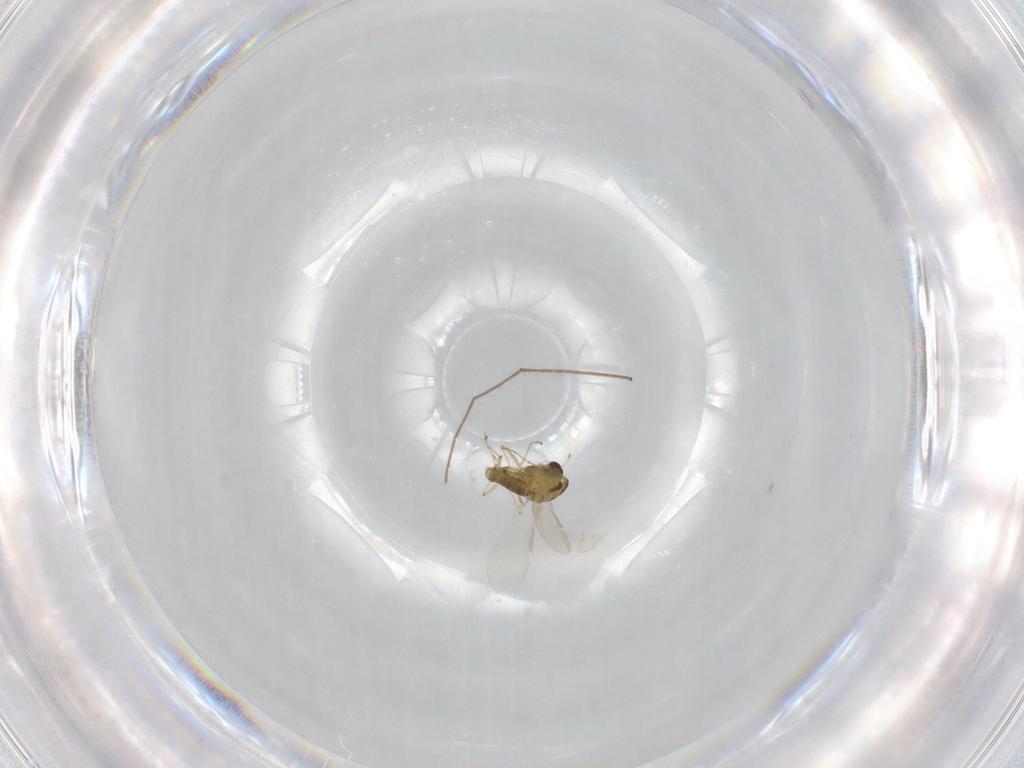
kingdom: Animalia
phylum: Arthropoda
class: Insecta
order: Diptera
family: Chironomidae
